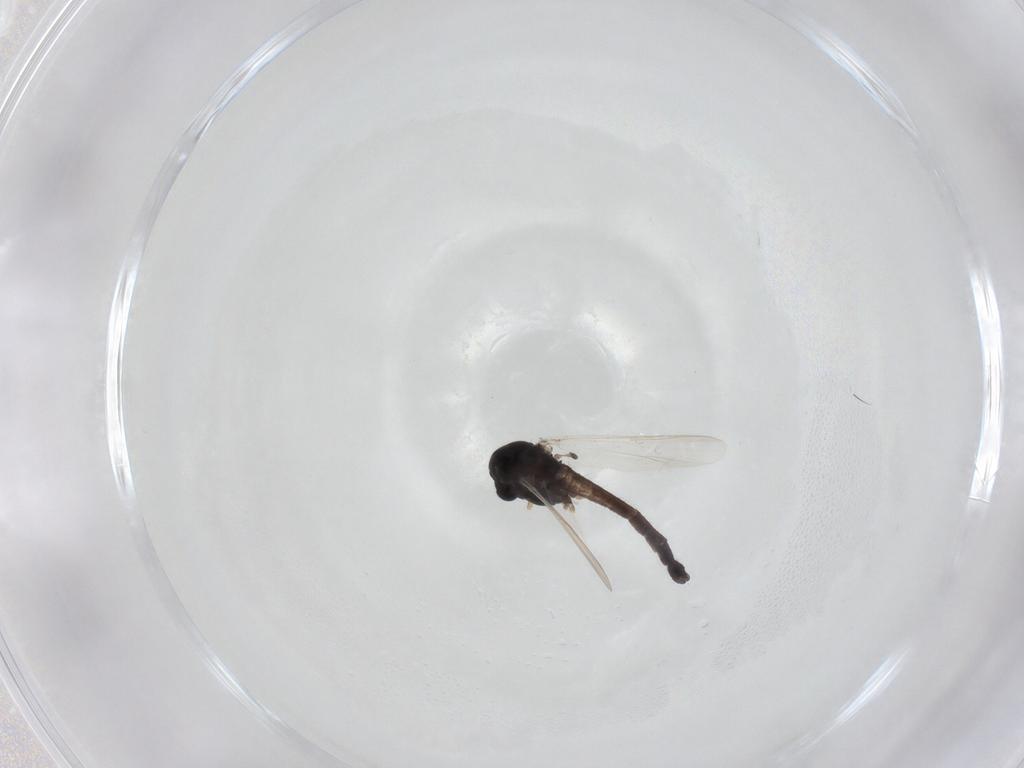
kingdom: Animalia
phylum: Arthropoda
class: Insecta
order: Diptera
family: Chironomidae
